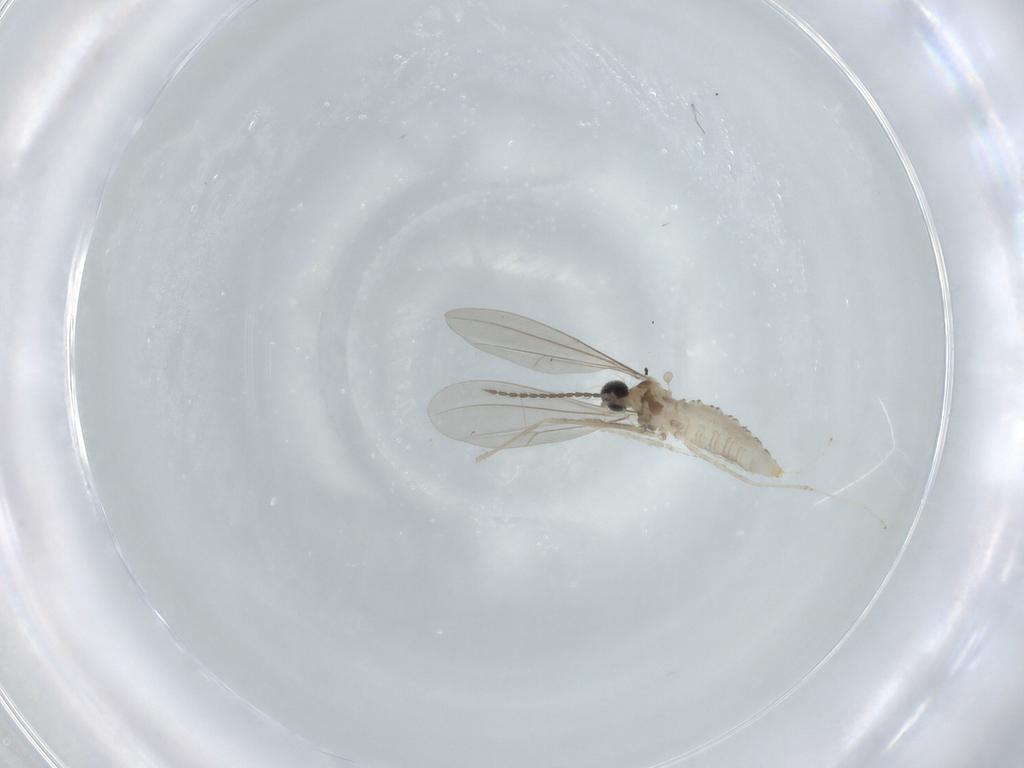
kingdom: Animalia
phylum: Arthropoda
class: Insecta
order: Diptera
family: Cecidomyiidae
